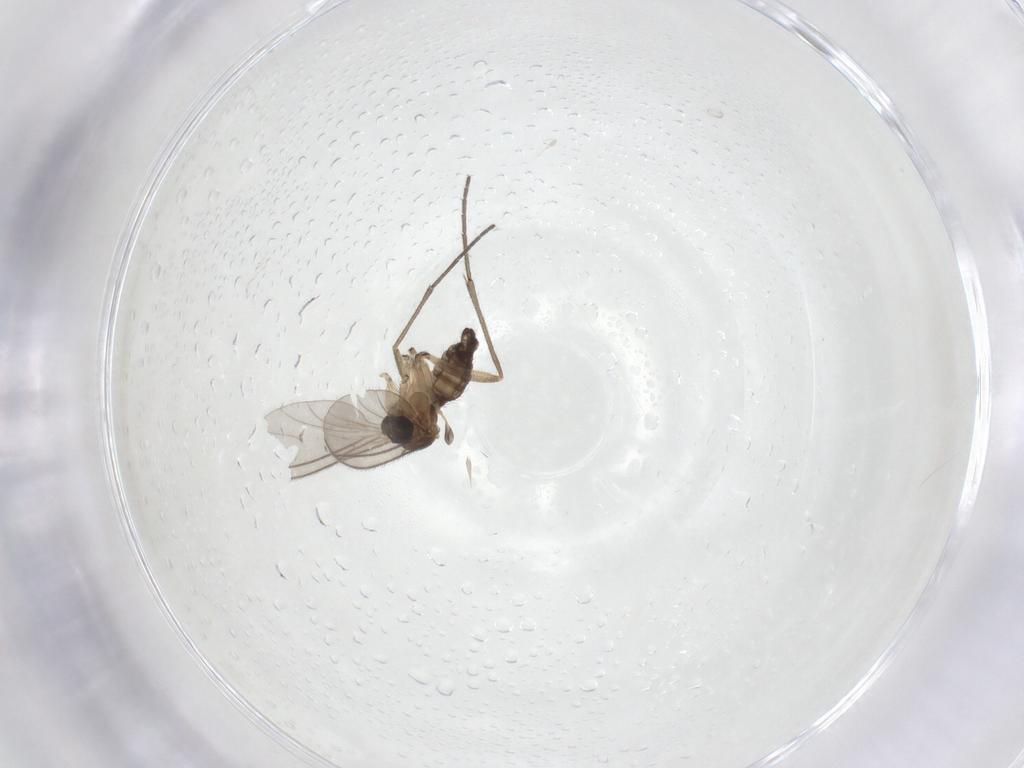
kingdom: Animalia
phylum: Arthropoda
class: Insecta
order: Diptera
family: Sciaridae
